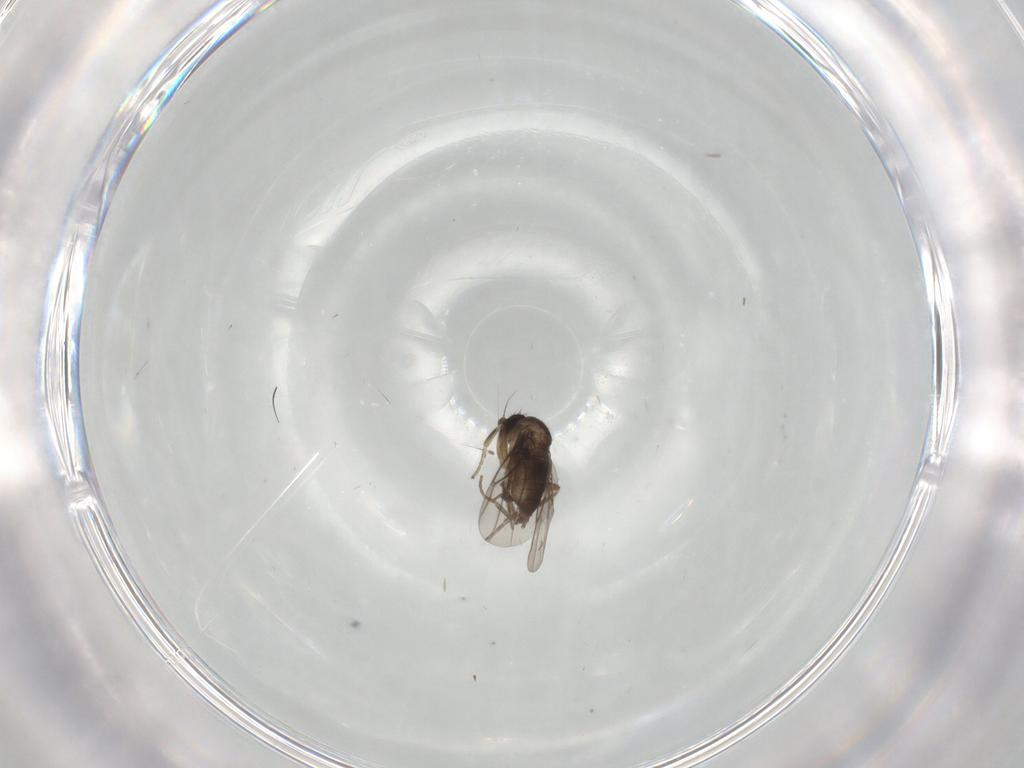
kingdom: Animalia
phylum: Arthropoda
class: Insecta
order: Diptera
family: Phoridae
